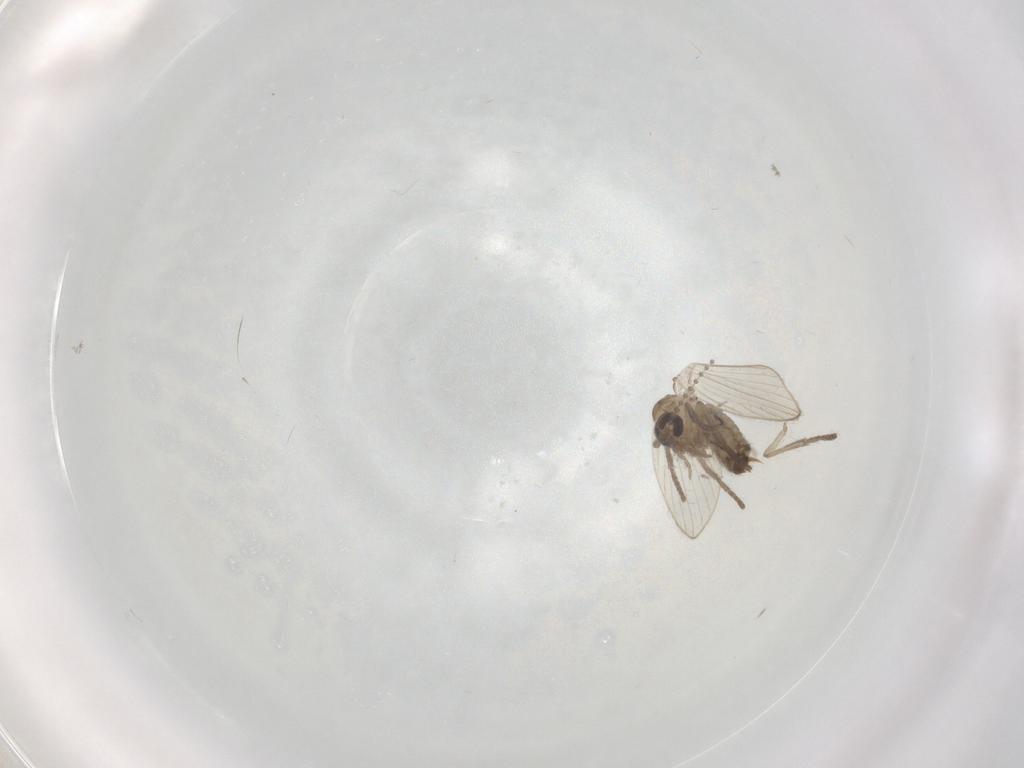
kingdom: Animalia
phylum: Arthropoda
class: Insecta
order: Diptera
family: Psychodidae
